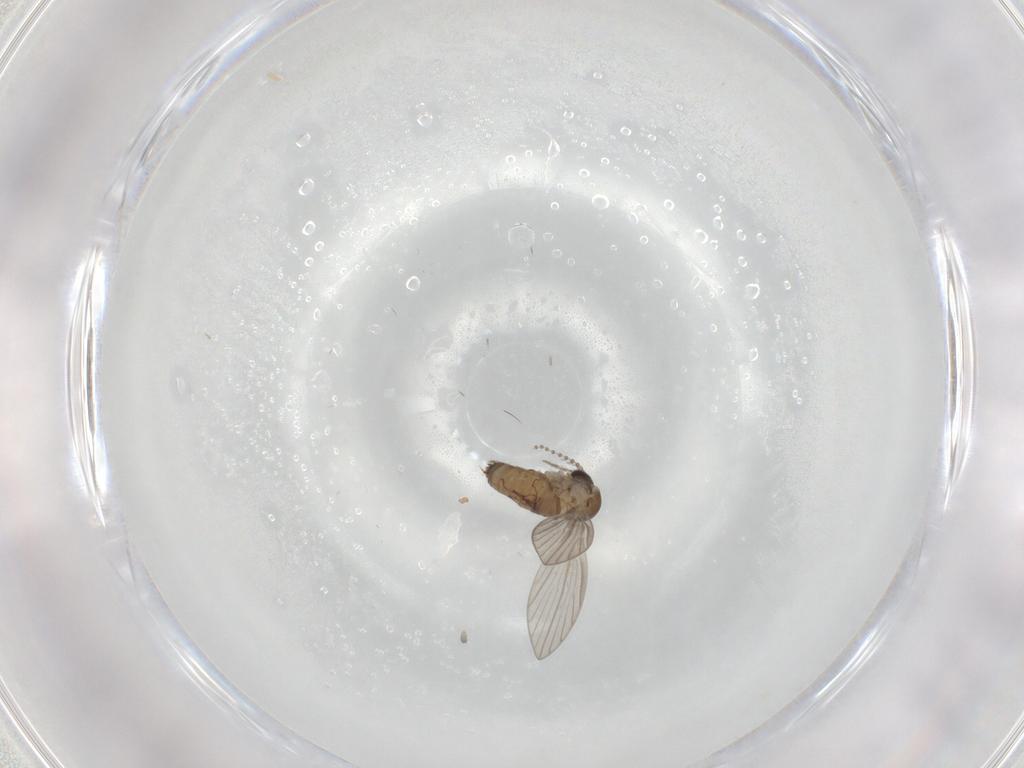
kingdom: Animalia
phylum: Arthropoda
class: Insecta
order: Diptera
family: Psychodidae
